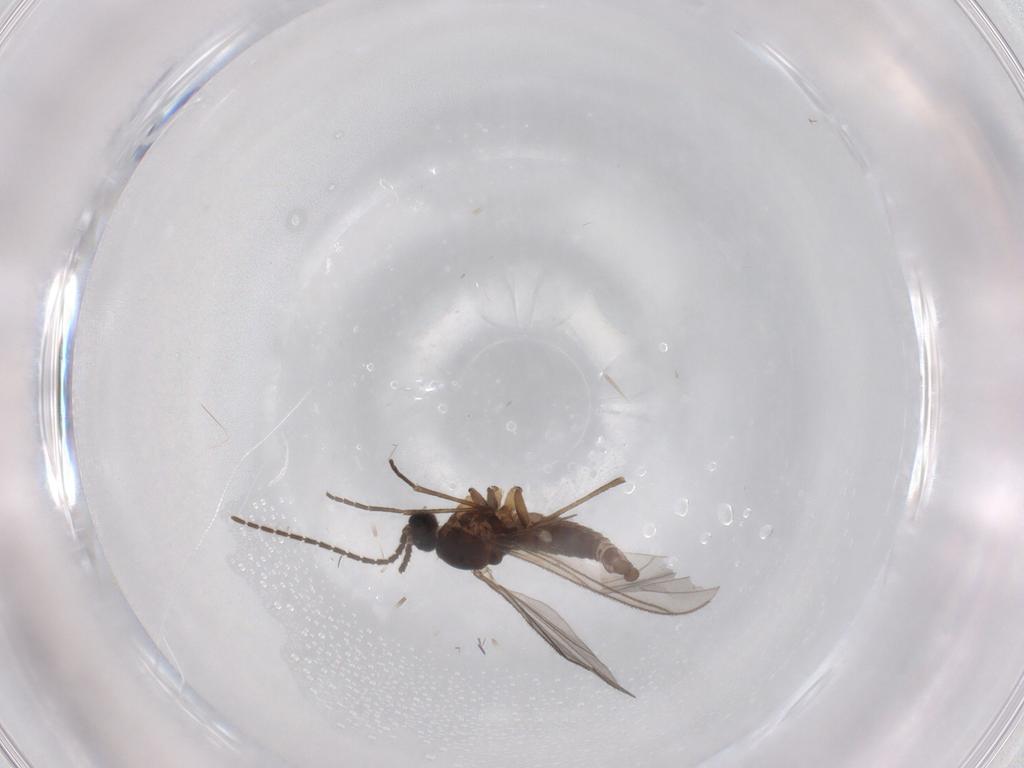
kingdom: Animalia
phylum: Arthropoda
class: Insecta
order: Diptera
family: Sciaridae
